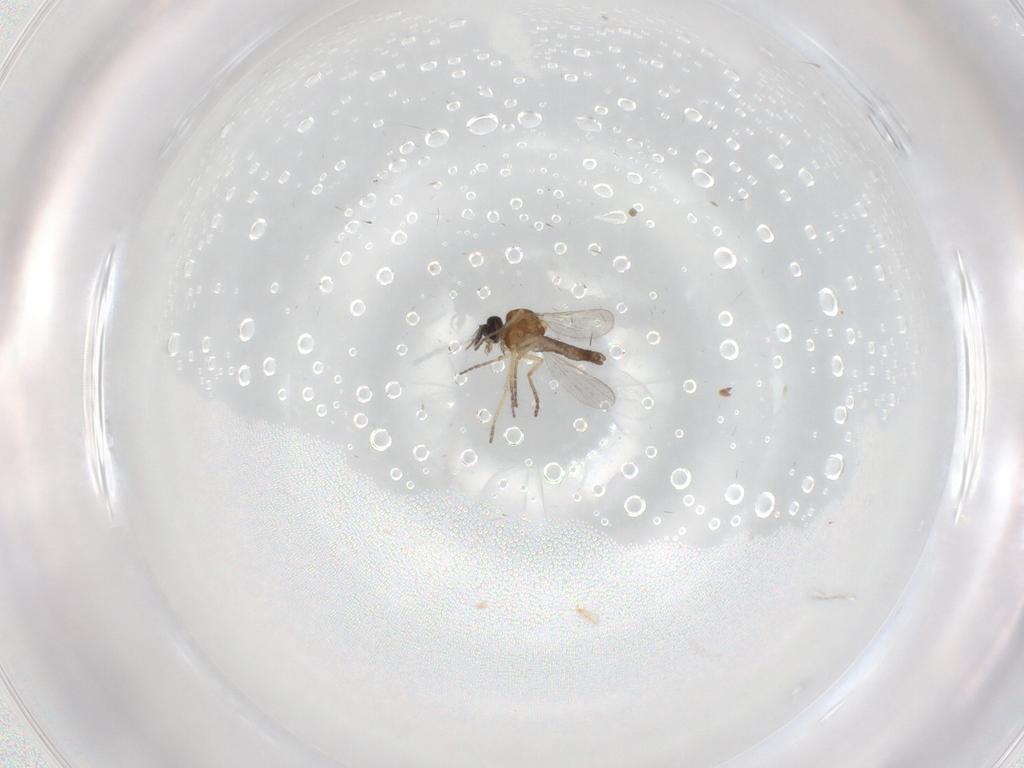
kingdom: Animalia
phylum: Arthropoda
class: Insecta
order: Diptera
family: Ceratopogonidae
